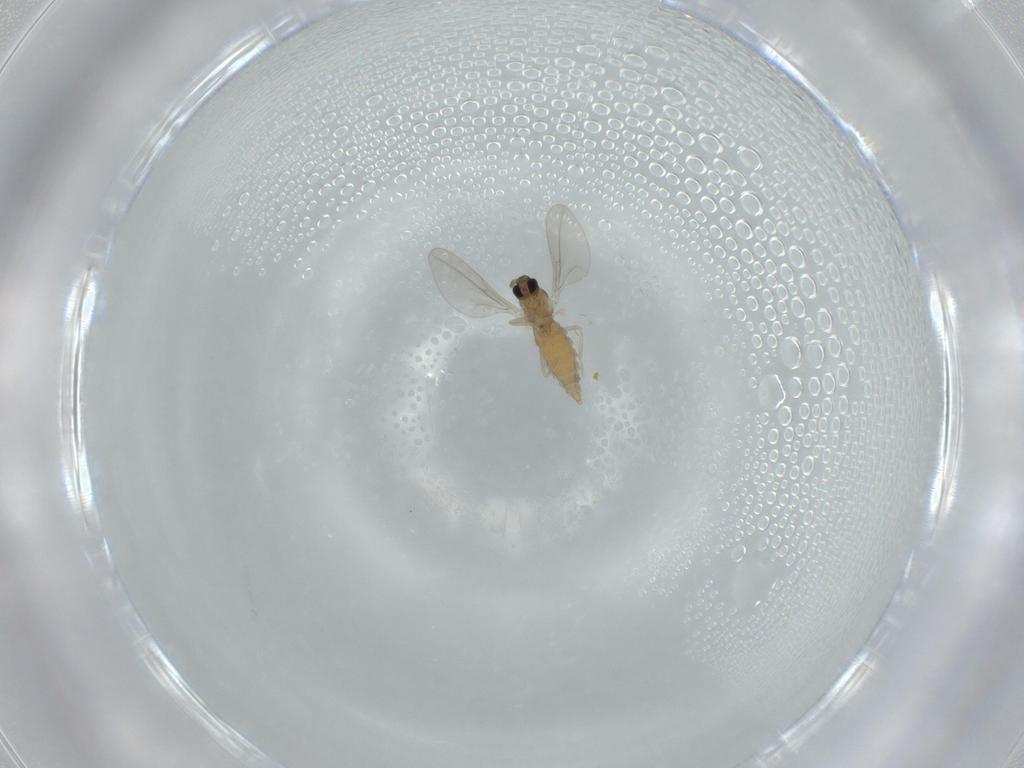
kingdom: Animalia
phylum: Arthropoda
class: Insecta
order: Diptera
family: Cecidomyiidae
